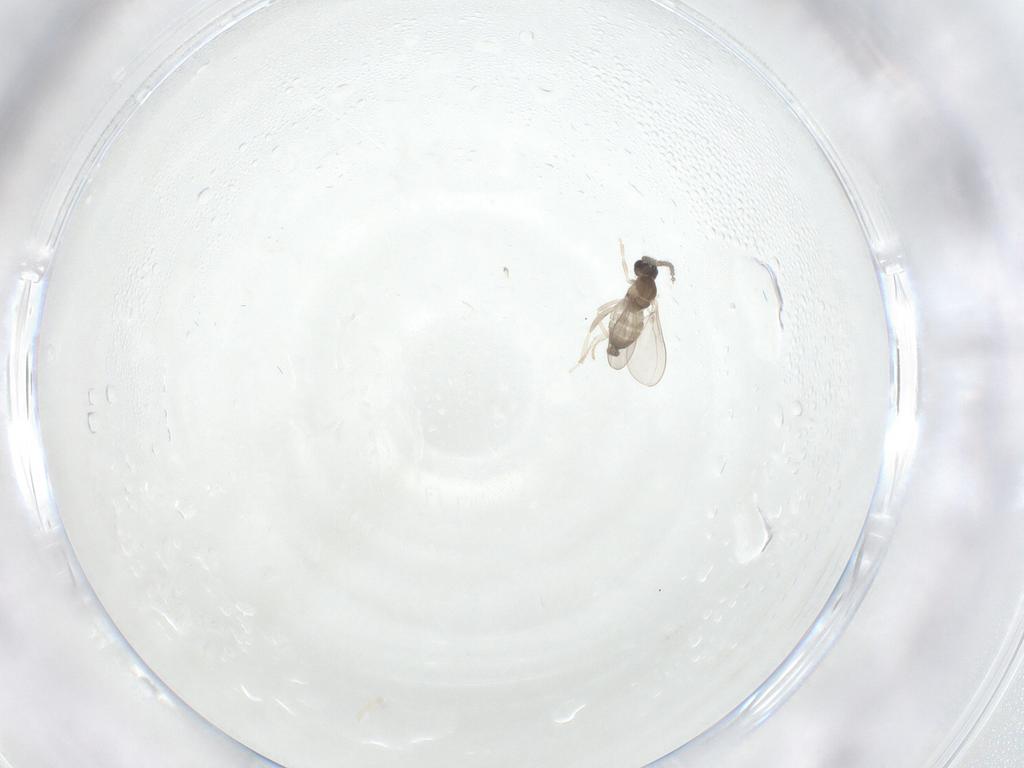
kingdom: Animalia
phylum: Arthropoda
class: Insecta
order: Diptera
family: Cecidomyiidae
